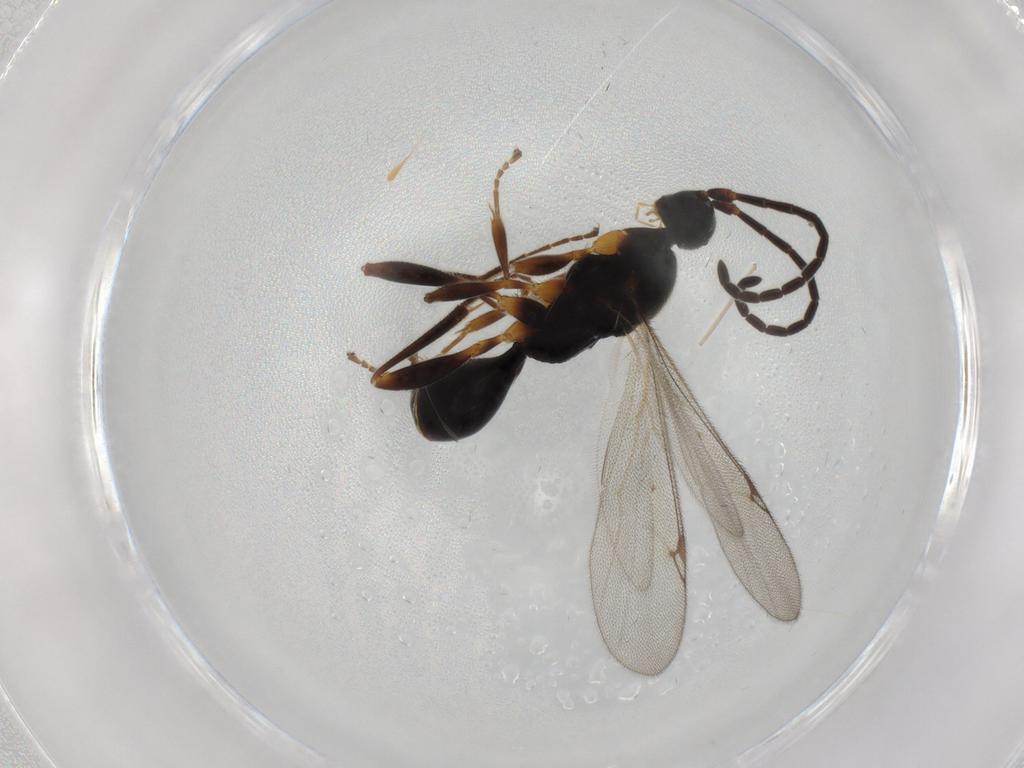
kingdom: Animalia
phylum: Arthropoda
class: Insecta
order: Hymenoptera
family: Proctotrupidae
